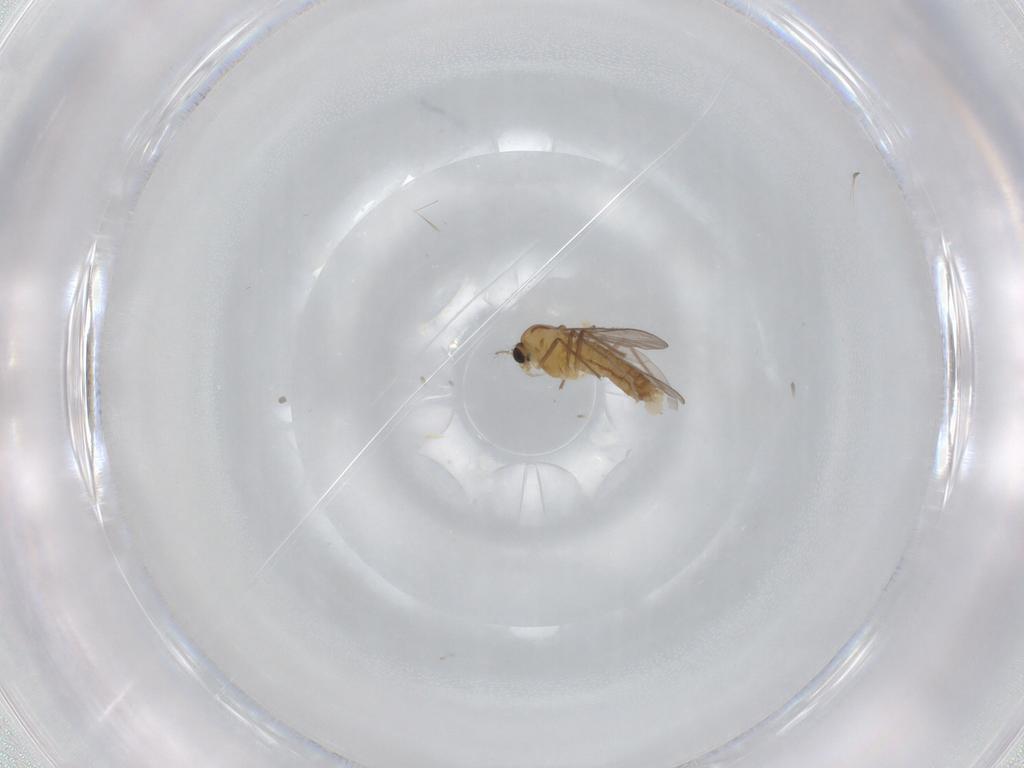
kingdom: Animalia
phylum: Arthropoda
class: Insecta
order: Diptera
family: Chironomidae
